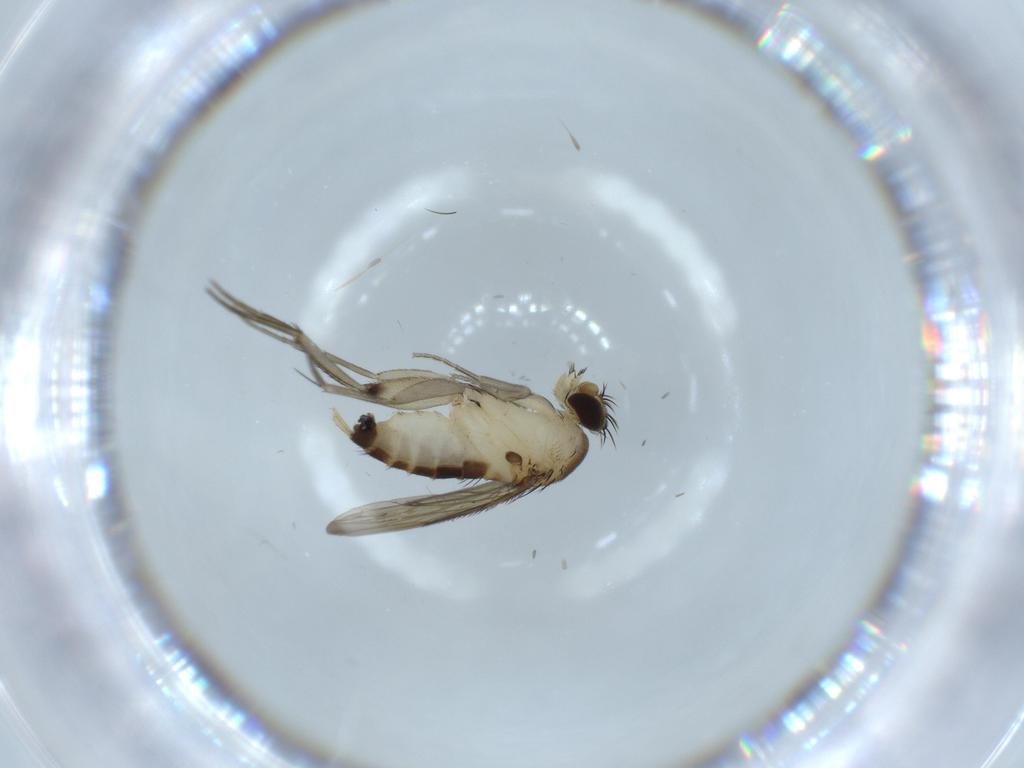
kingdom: Animalia
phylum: Arthropoda
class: Insecta
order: Diptera
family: Phoridae
